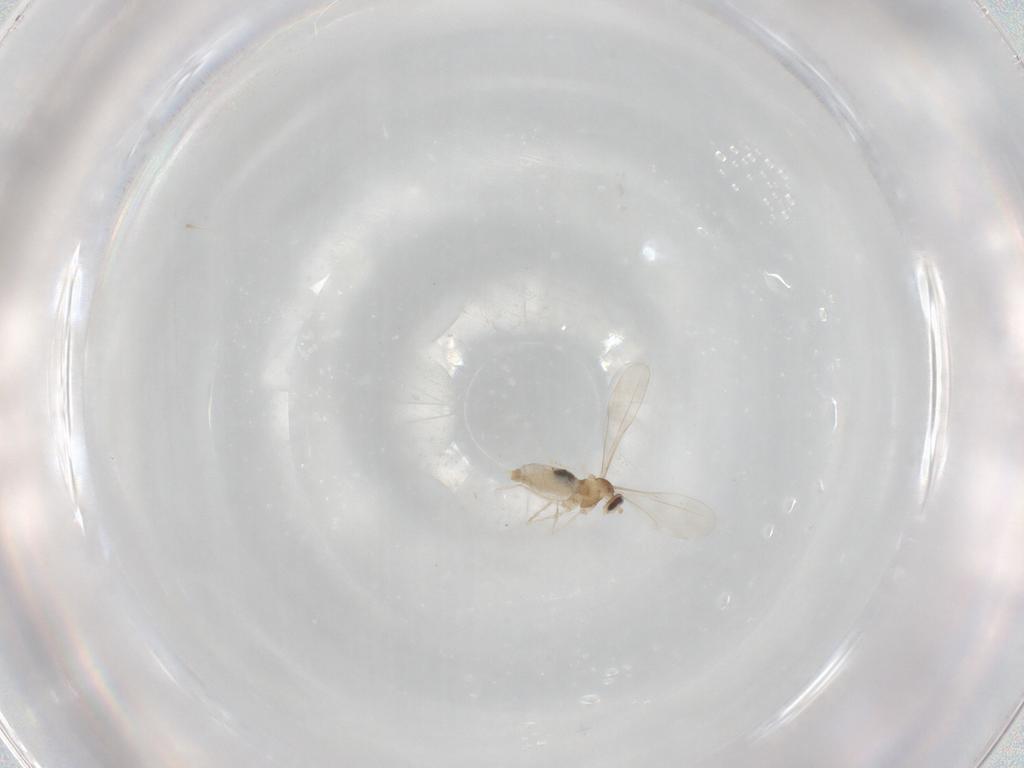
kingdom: Animalia
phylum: Arthropoda
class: Insecta
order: Diptera
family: Cecidomyiidae
